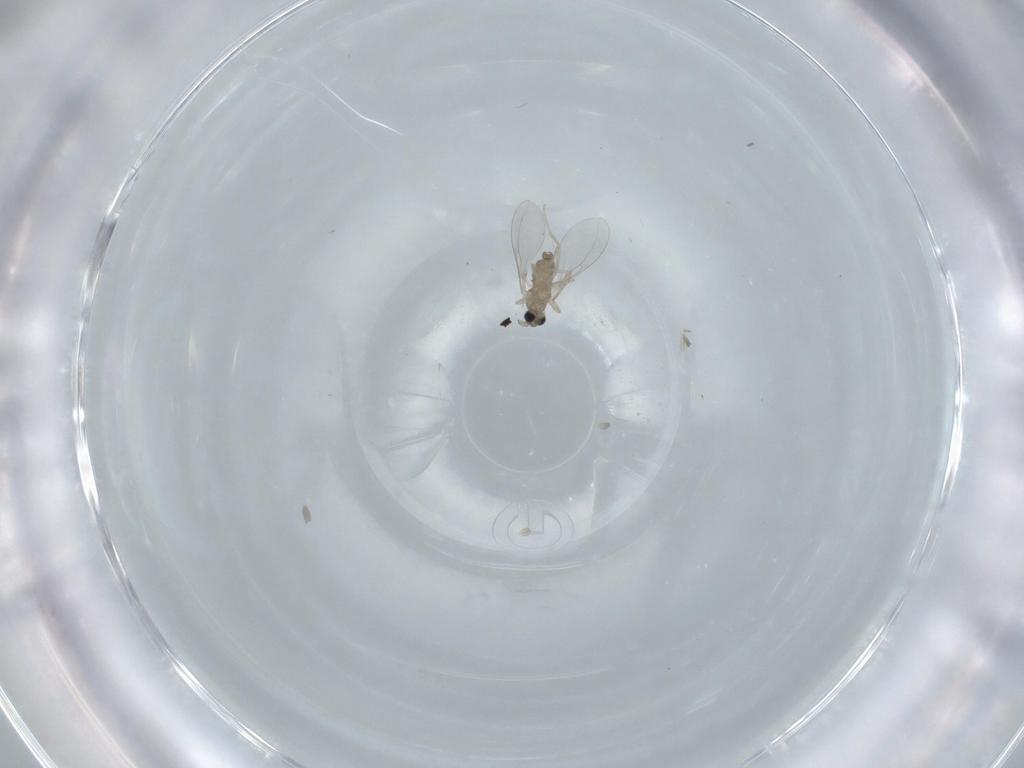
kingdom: Animalia
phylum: Arthropoda
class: Insecta
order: Diptera
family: Cecidomyiidae
